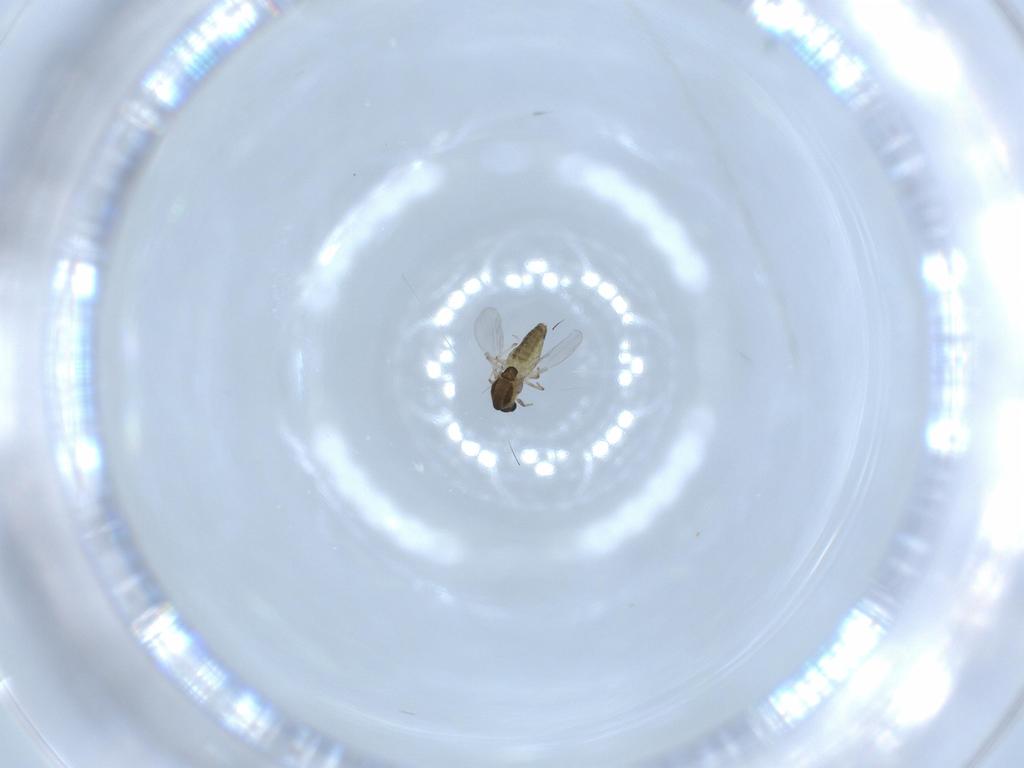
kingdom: Animalia
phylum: Arthropoda
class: Insecta
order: Diptera
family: Chironomidae
